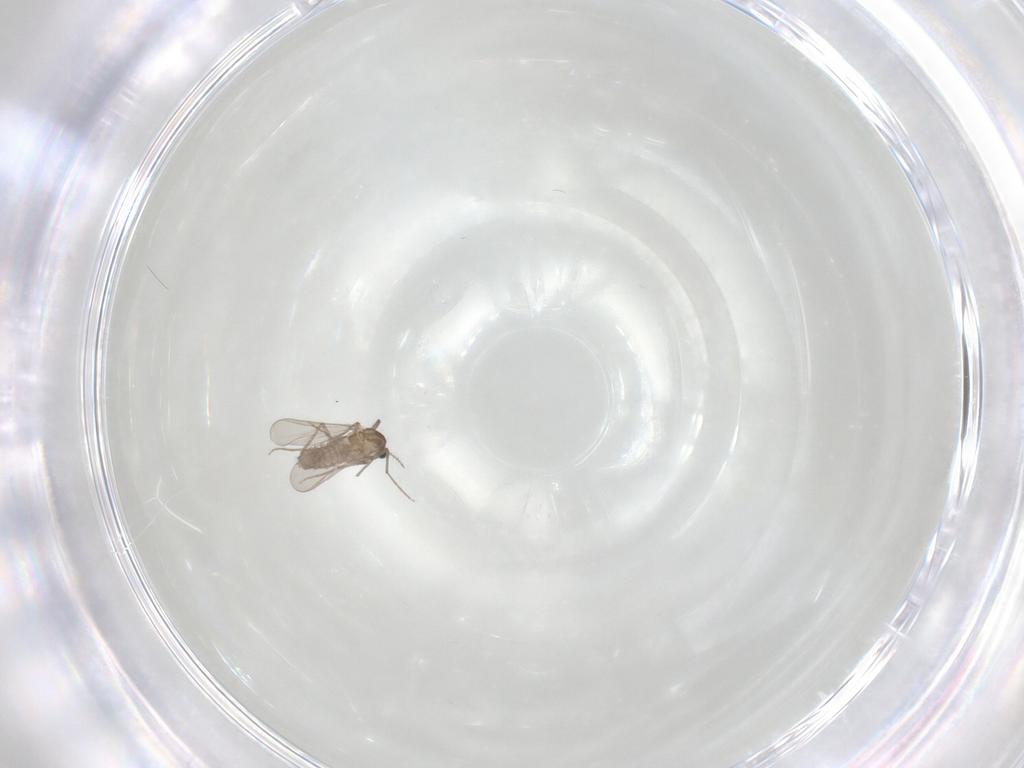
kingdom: Animalia
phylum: Arthropoda
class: Insecta
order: Diptera
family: Chironomidae
